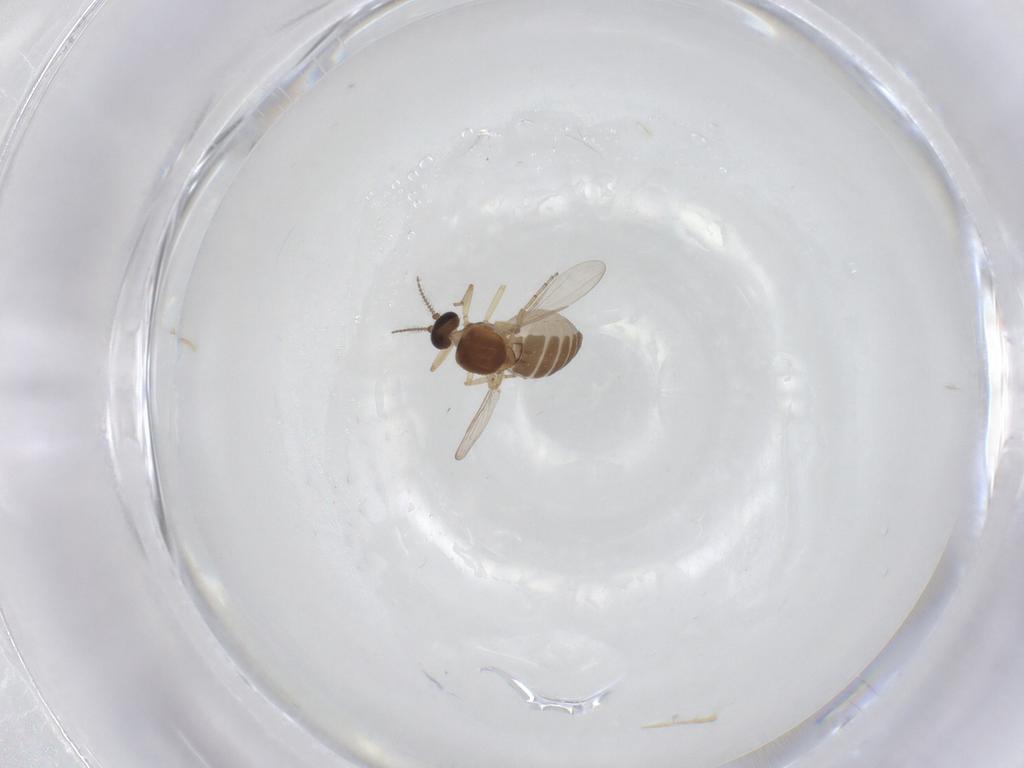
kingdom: Animalia
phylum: Arthropoda
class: Insecta
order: Diptera
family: Ceratopogonidae
